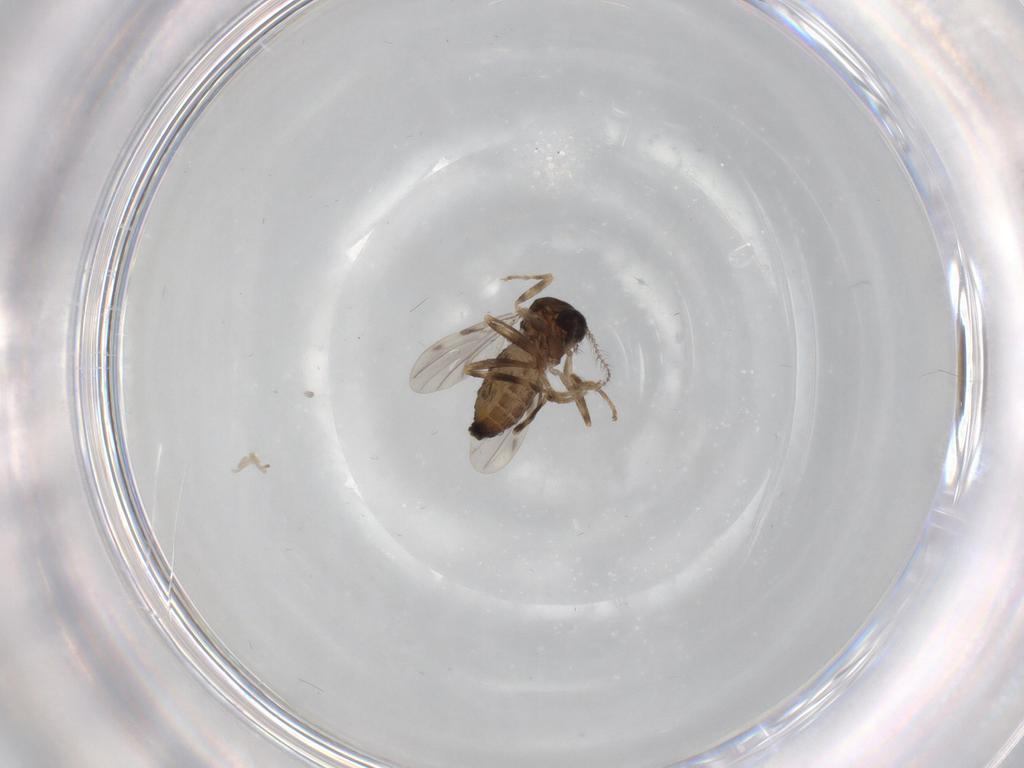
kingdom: Animalia
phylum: Arthropoda
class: Insecta
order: Diptera
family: Ceratopogonidae
